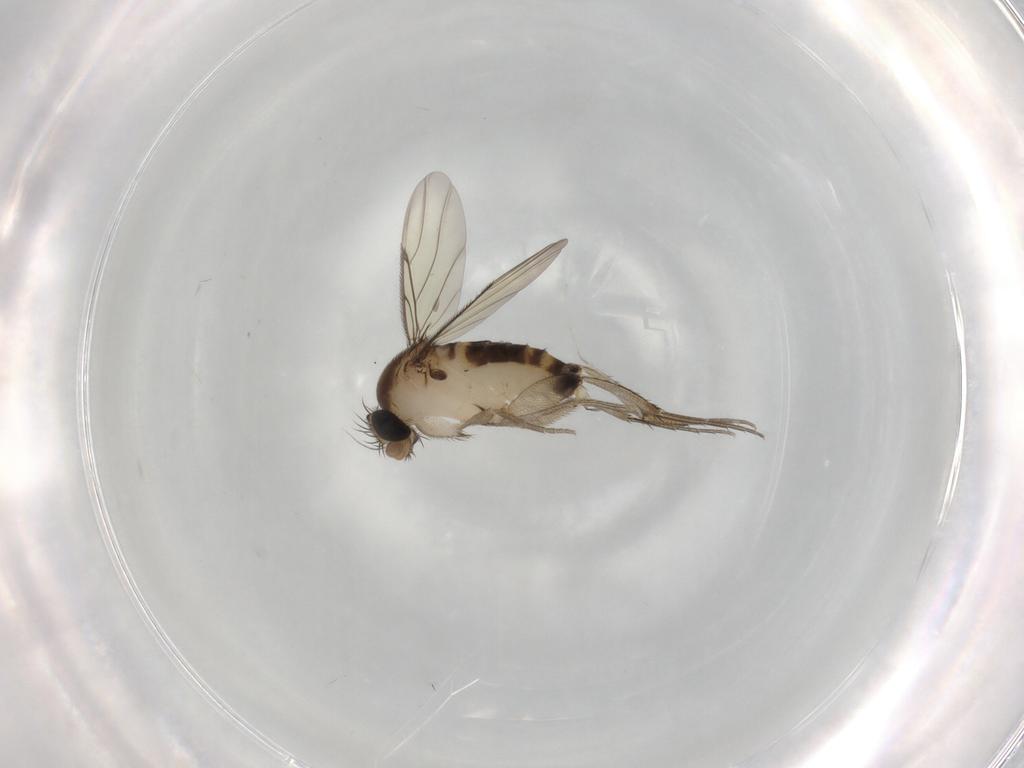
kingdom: Animalia
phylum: Arthropoda
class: Insecta
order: Diptera
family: Phoridae
